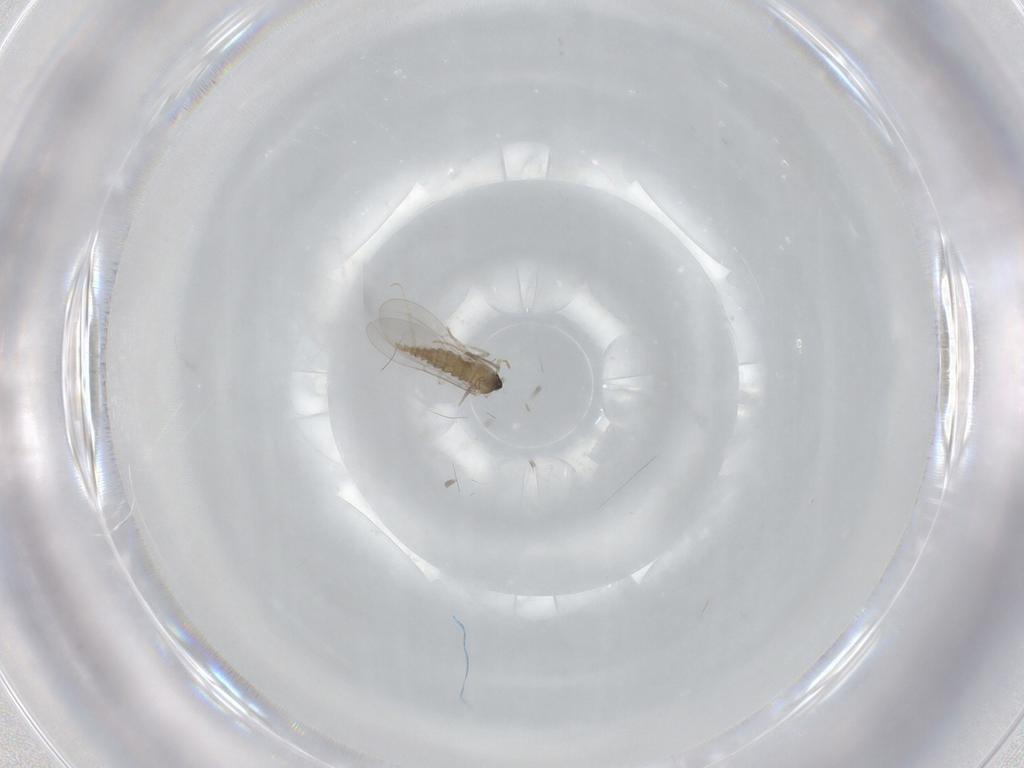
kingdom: Animalia
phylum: Arthropoda
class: Insecta
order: Diptera
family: Cecidomyiidae
